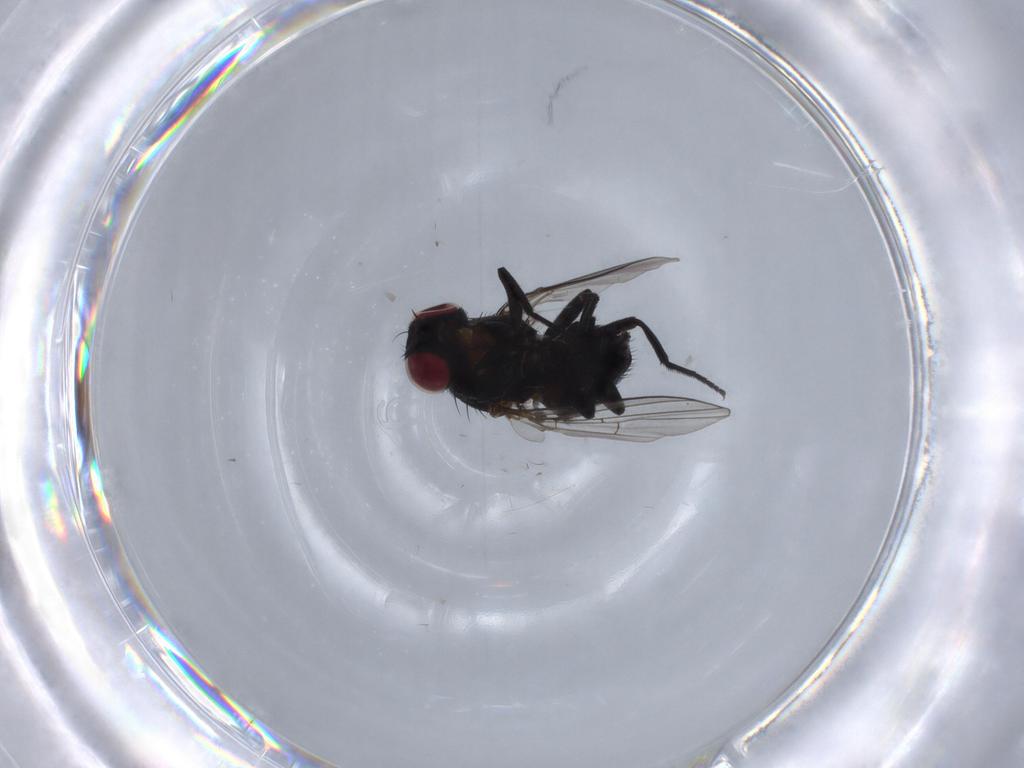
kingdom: Animalia
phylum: Arthropoda
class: Insecta
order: Diptera
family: Agromyzidae
